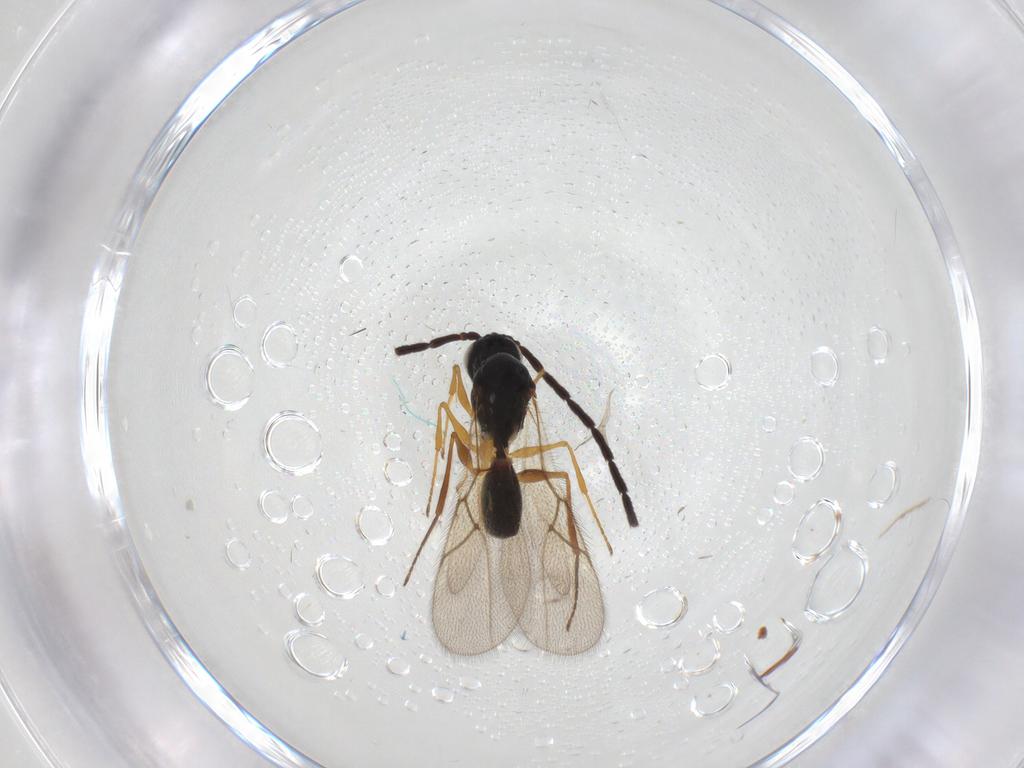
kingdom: Animalia
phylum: Arthropoda
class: Insecta
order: Hymenoptera
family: Figitidae
